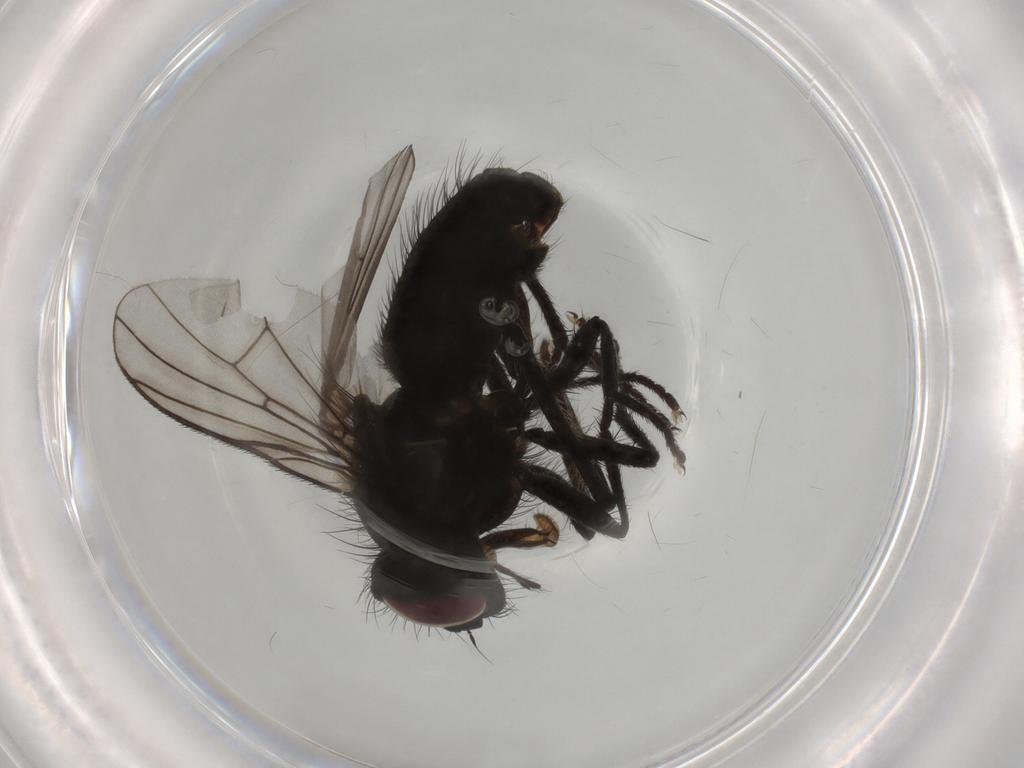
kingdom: Animalia
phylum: Arthropoda
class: Insecta
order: Diptera
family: Muscidae
